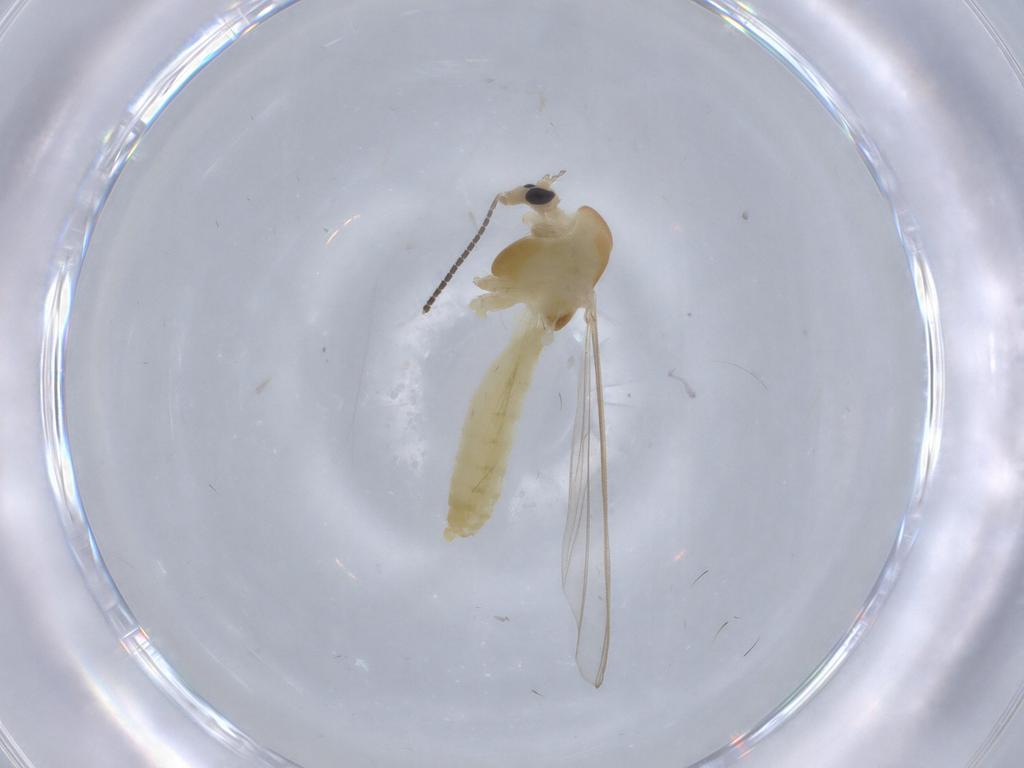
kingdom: Animalia
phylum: Arthropoda
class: Insecta
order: Diptera
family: Chironomidae
